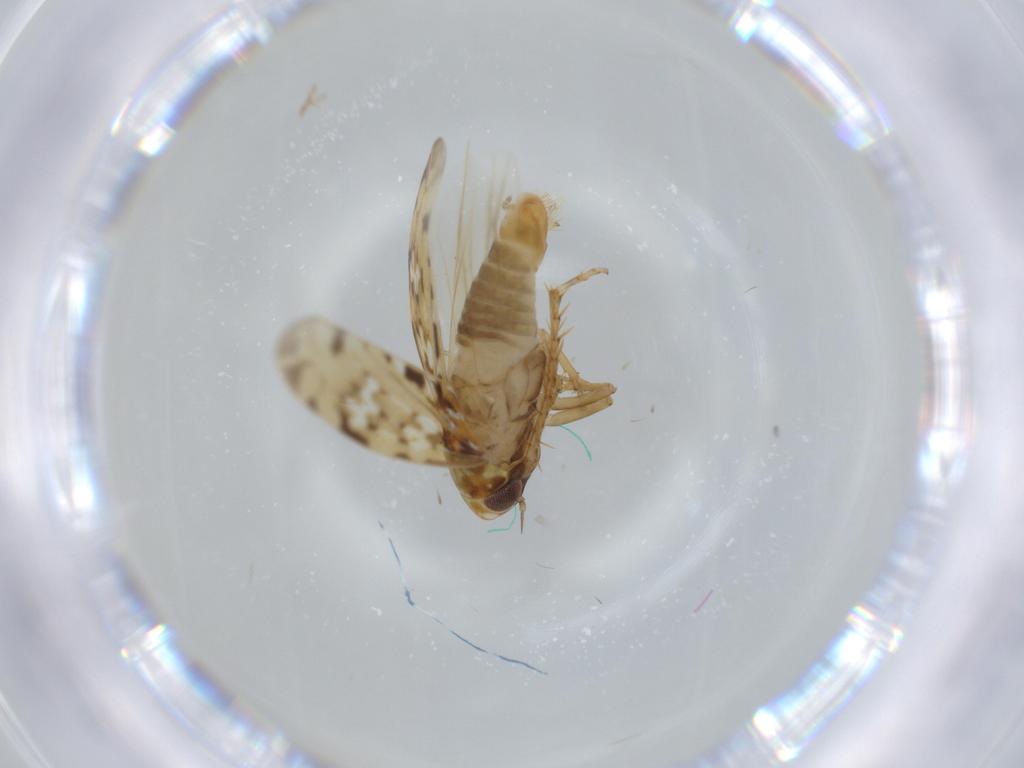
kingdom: Animalia
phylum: Arthropoda
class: Insecta
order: Hemiptera
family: Cicadellidae
